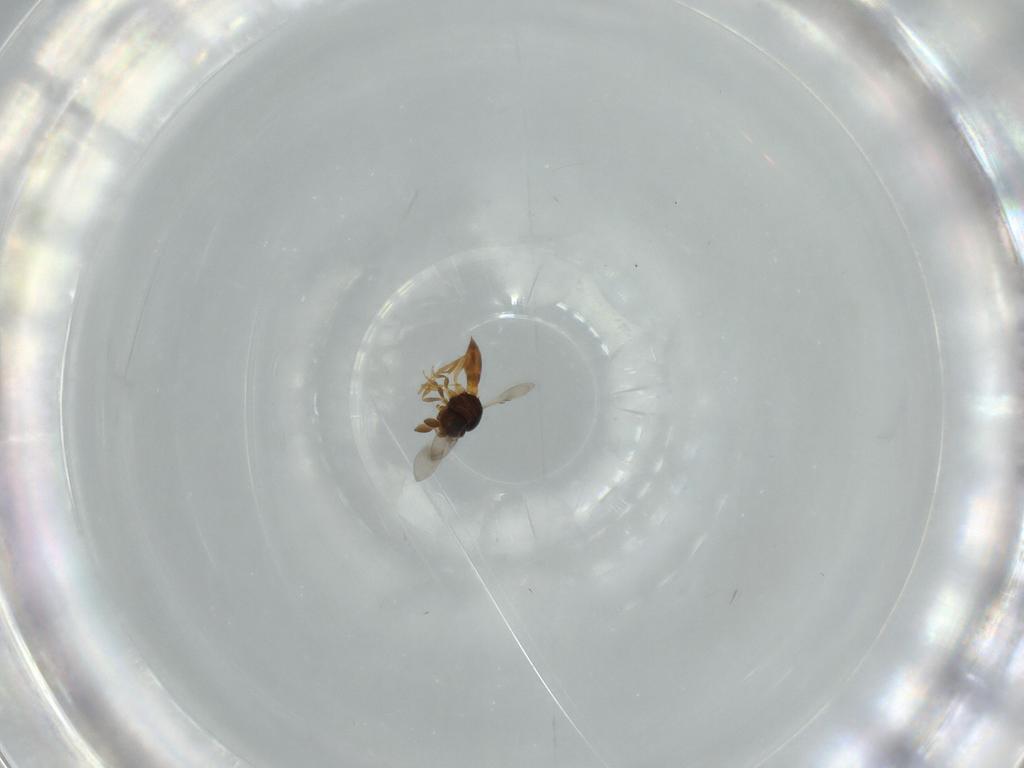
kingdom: Animalia
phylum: Arthropoda
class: Insecta
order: Hymenoptera
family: Scelionidae
